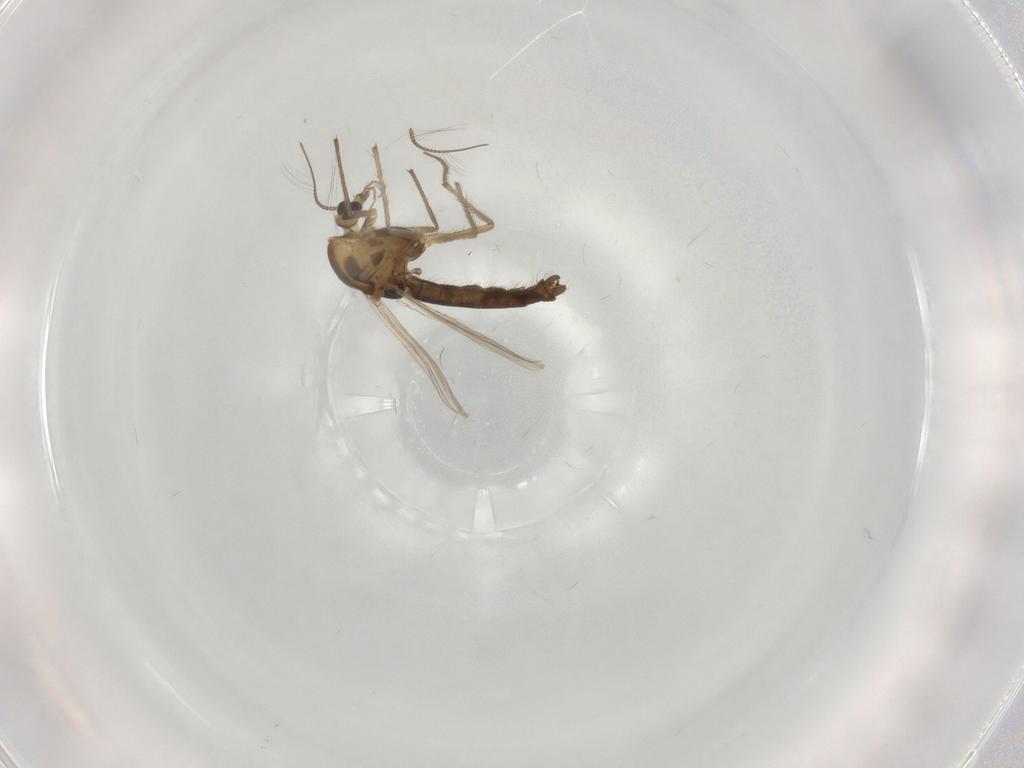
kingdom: Animalia
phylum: Arthropoda
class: Insecta
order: Diptera
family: Chironomidae
